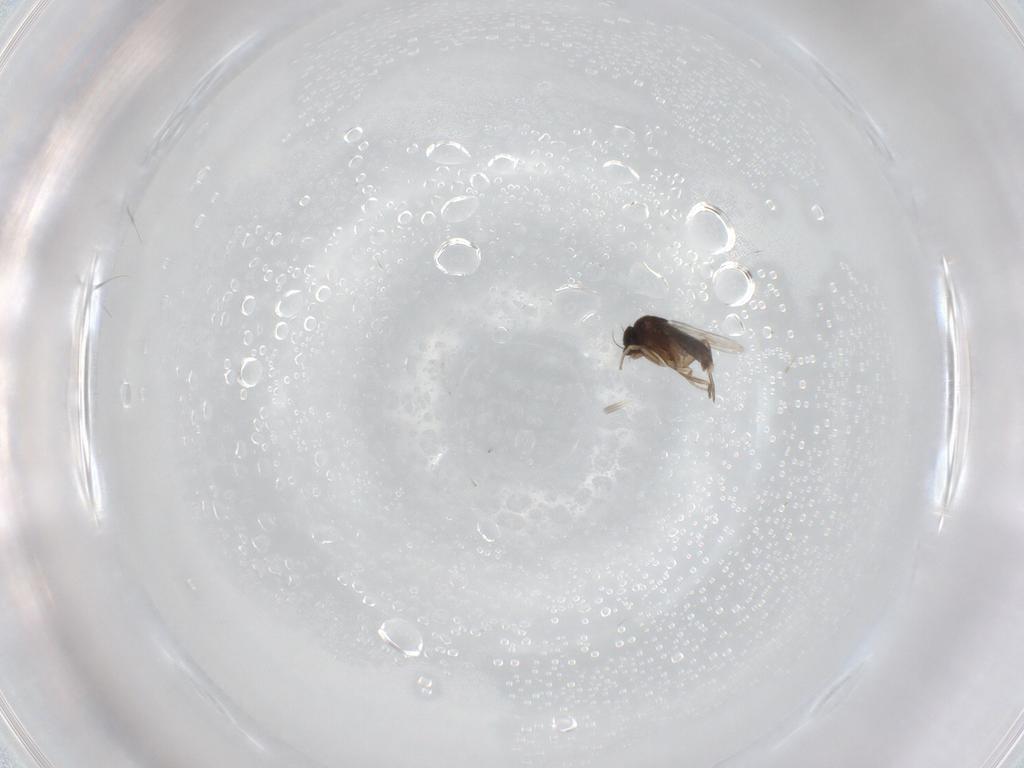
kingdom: Animalia
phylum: Arthropoda
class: Insecta
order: Diptera
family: Phoridae
